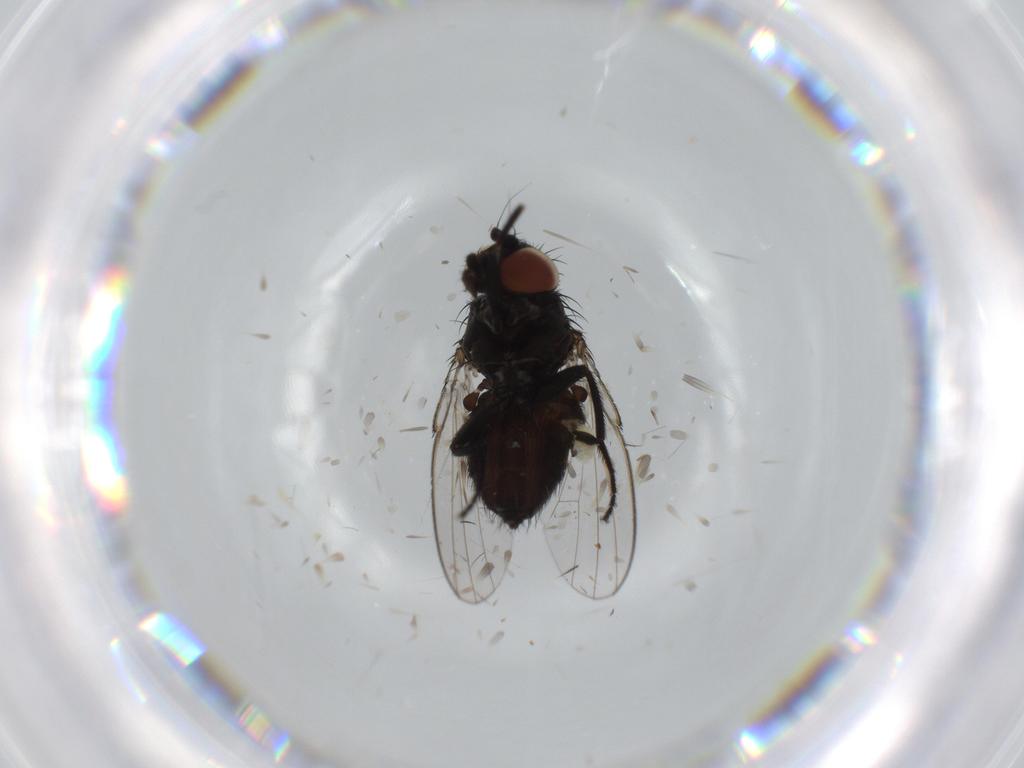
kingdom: Animalia
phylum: Arthropoda
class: Insecta
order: Diptera
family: Milichiidae
